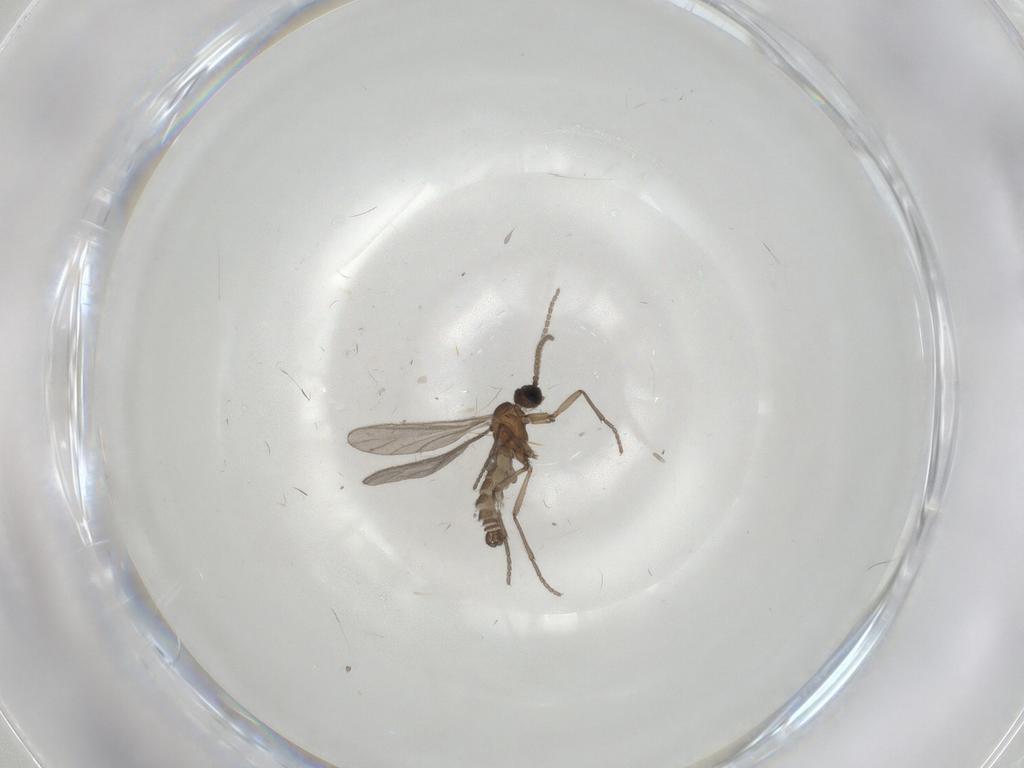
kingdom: Animalia
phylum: Arthropoda
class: Insecta
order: Diptera
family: Sciaridae
